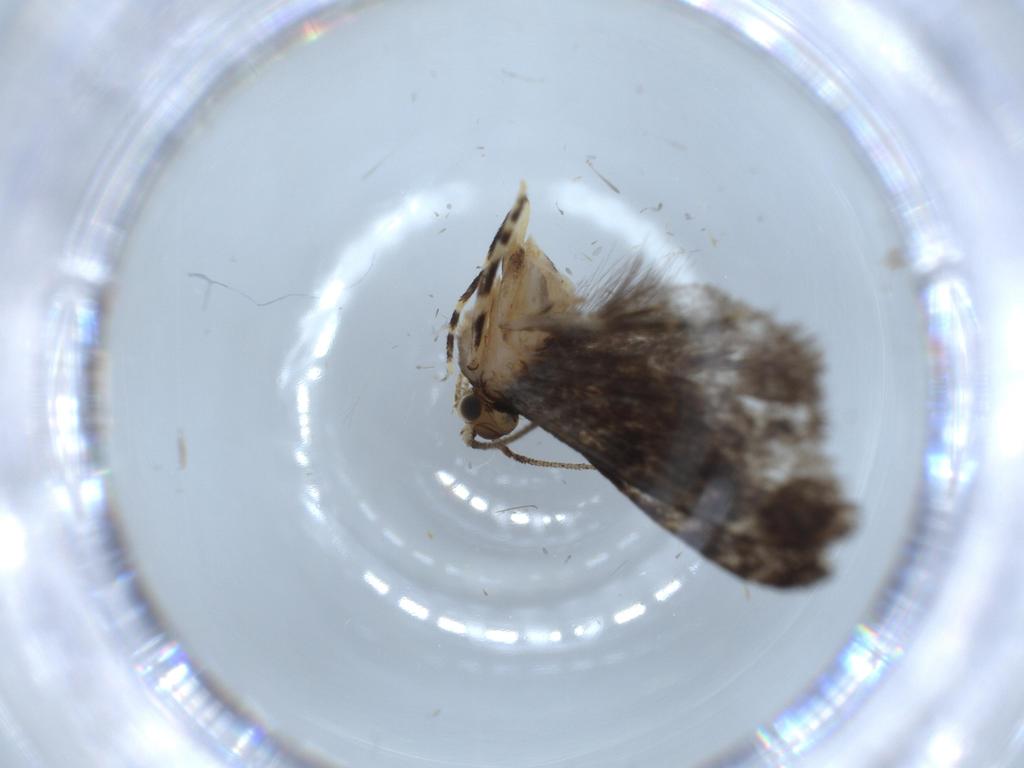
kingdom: Animalia
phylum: Arthropoda
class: Insecta
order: Lepidoptera
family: Tineidae
